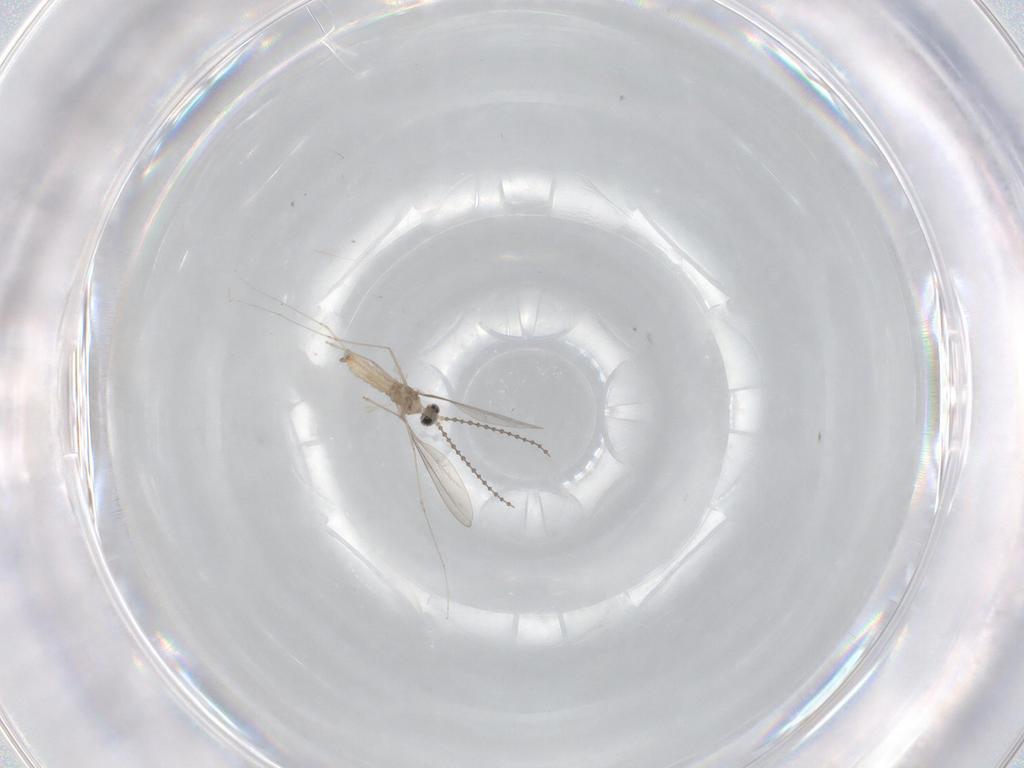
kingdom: Animalia
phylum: Arthropoda
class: Insecta
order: Diptera
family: Cecidomyiidae
